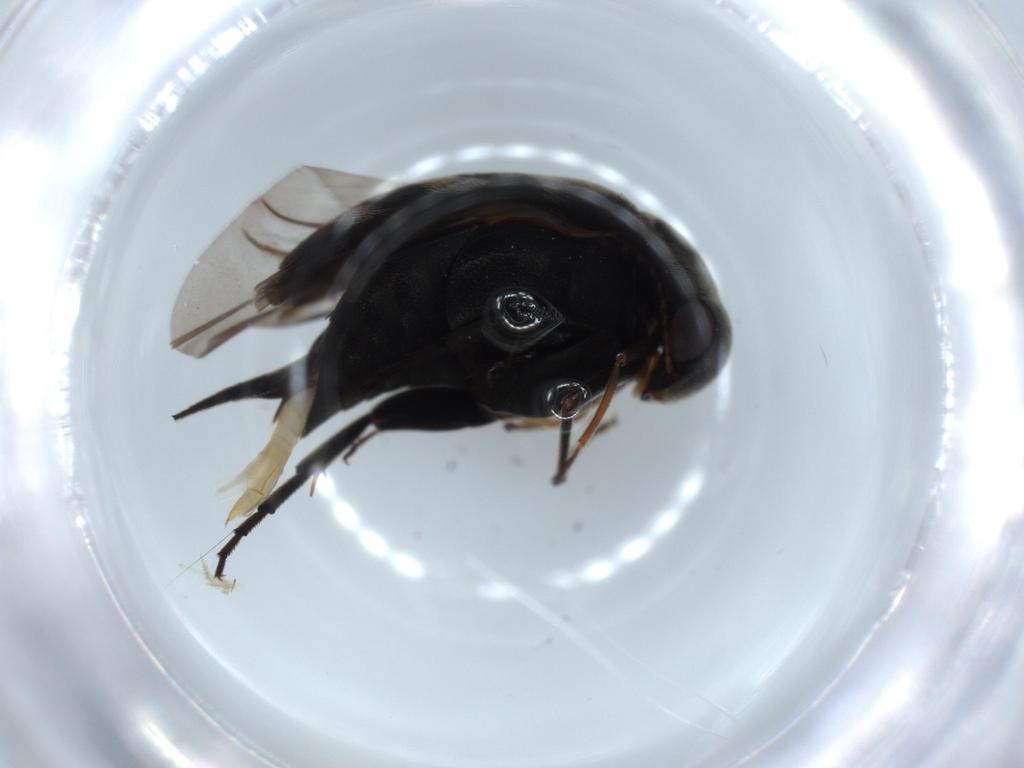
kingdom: Animalia
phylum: Arthropoda
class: Insecta
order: Coleoptera
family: Curculionidae
